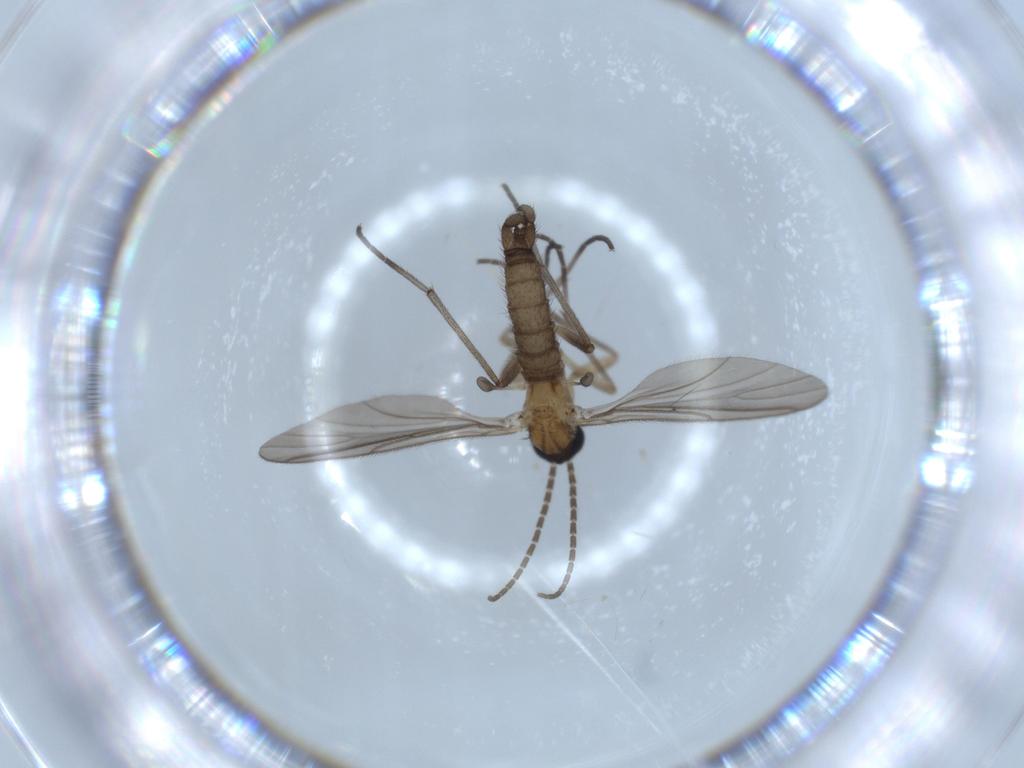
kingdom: Animalia
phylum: Arthropoda
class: Insecta
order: Diptera
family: Sciaridae
